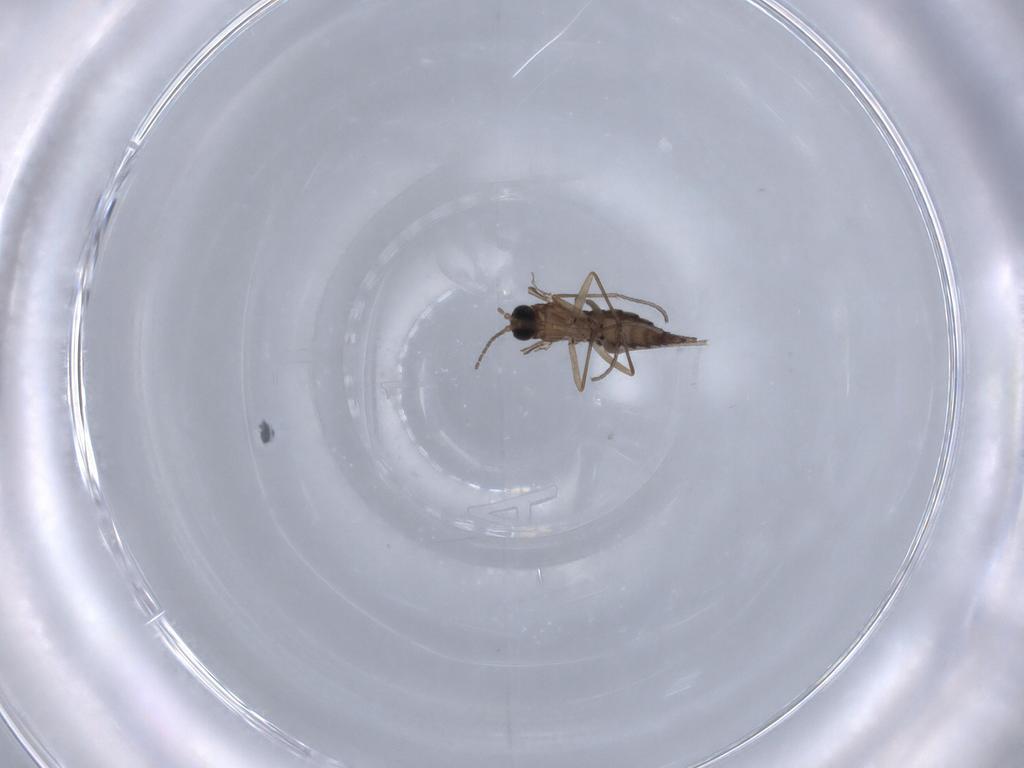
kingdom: Animalia
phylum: Arthropoda
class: Insecta
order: Diptera
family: Sciaridae
